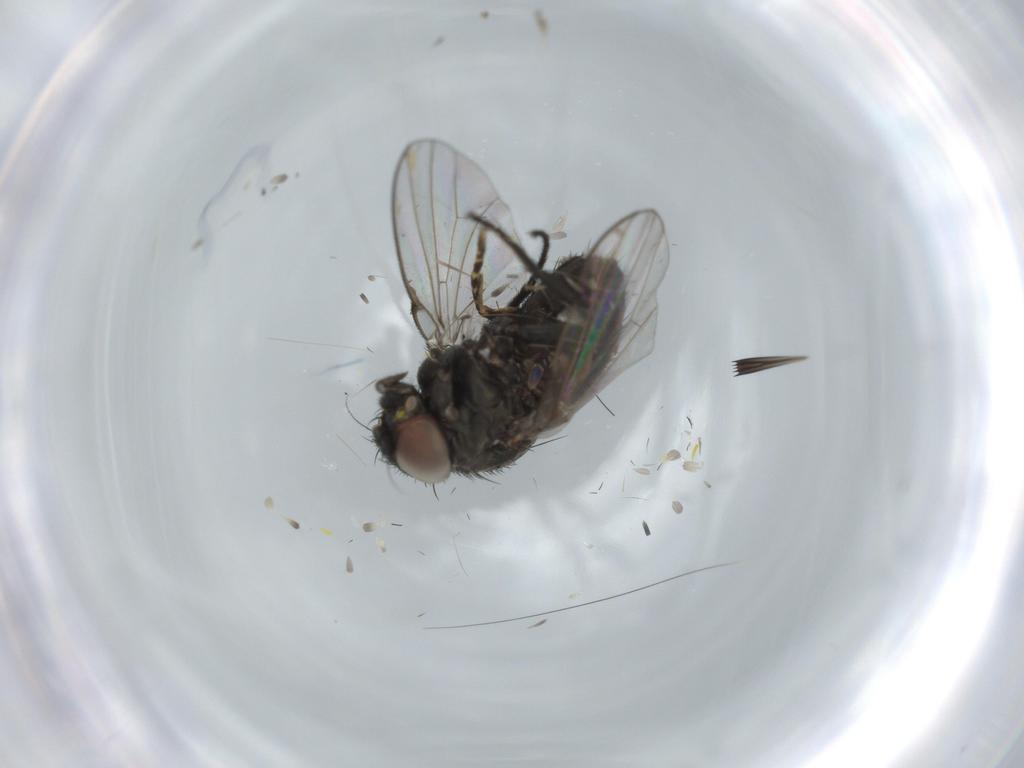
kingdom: Animalia
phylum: Arthropoda
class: Insecta
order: Diptera
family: Milichiidae
